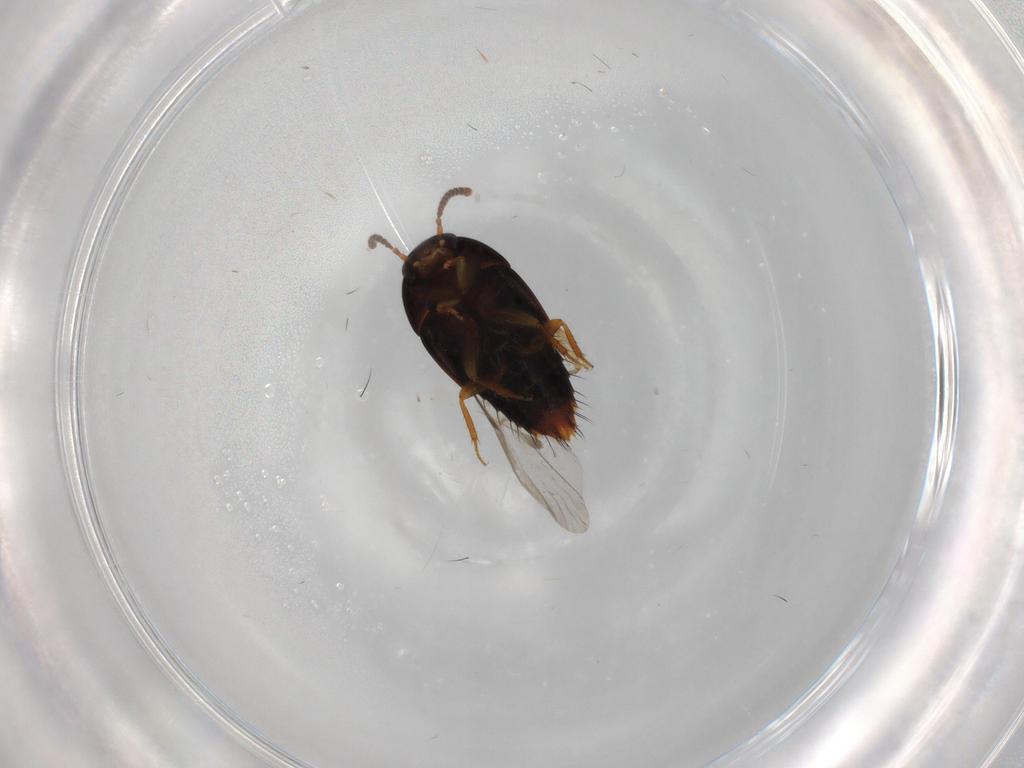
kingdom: Animalia
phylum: Arthropoda
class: Insecta
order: Coleoptera
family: Staphylinidae
